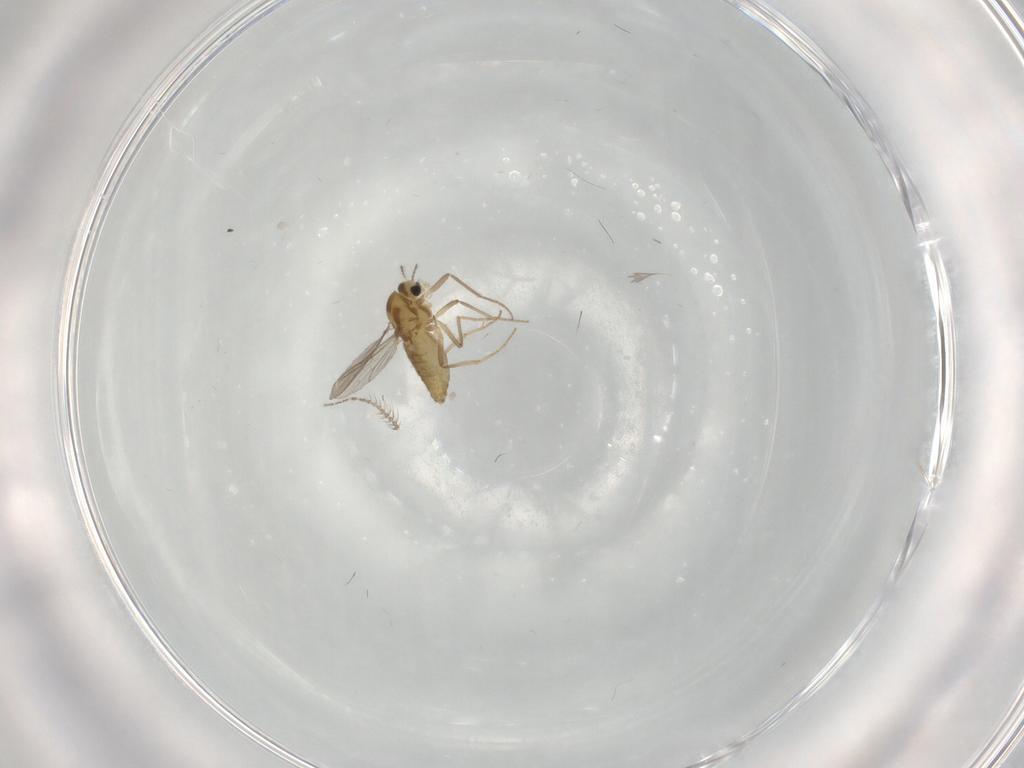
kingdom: Animalia
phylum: Arthropoda
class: Insecta
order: Diptera
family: Chironomidae
